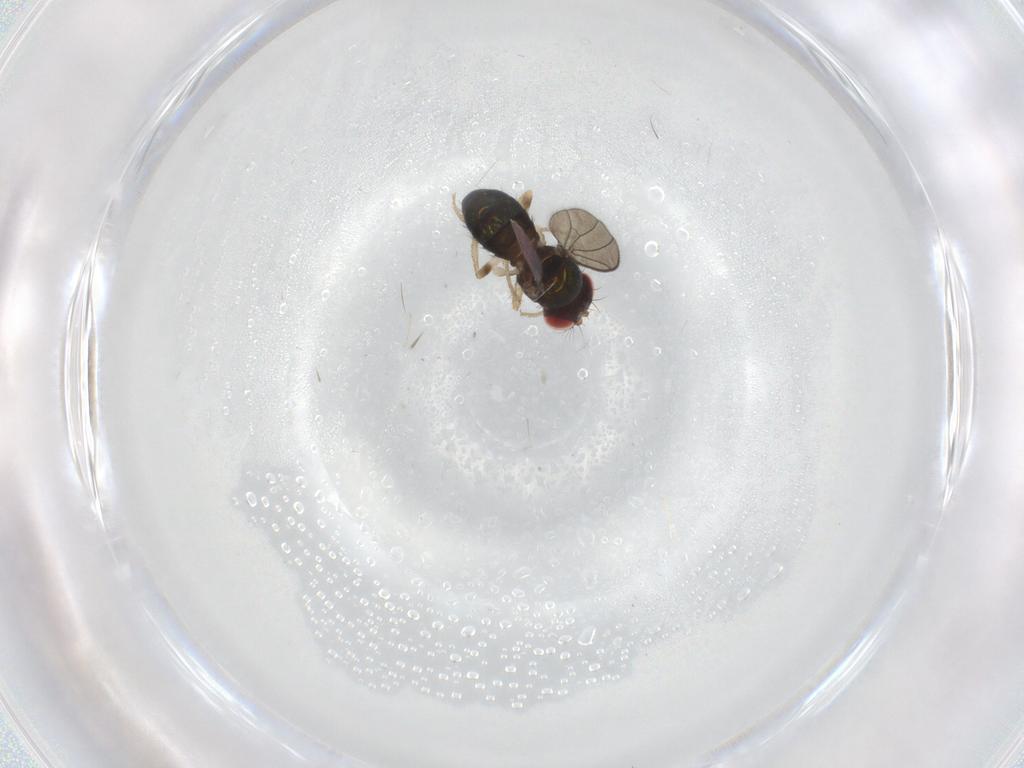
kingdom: Animalia
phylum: Arthropoda
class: Insecta
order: Diptera
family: Drosophilidae
